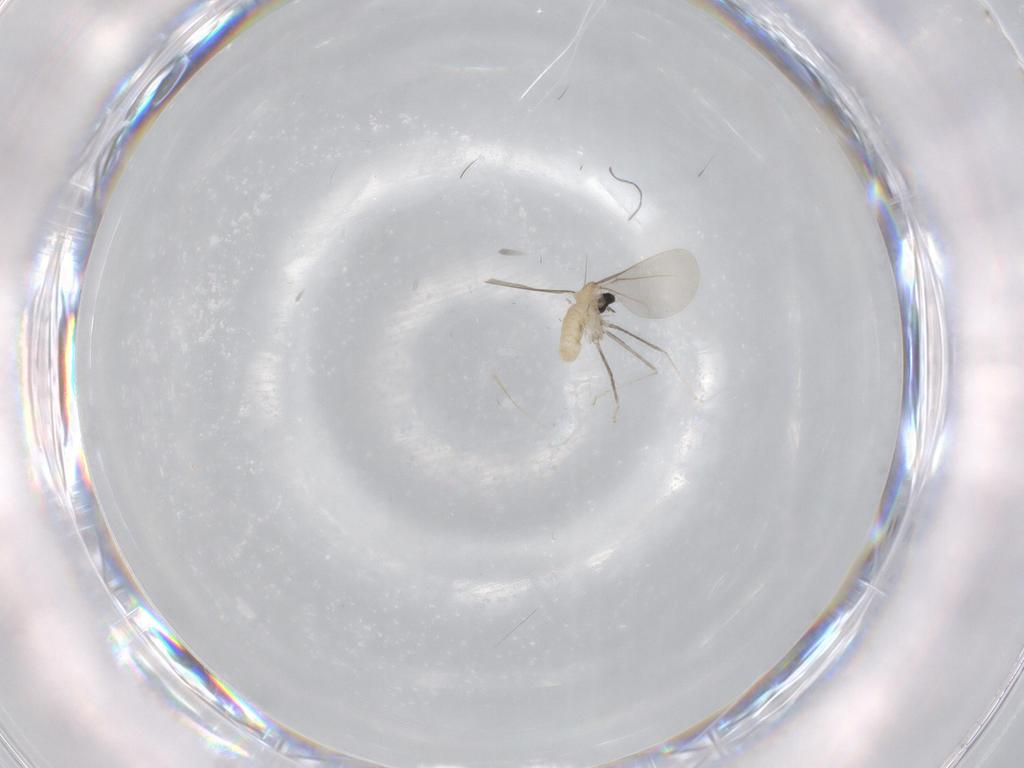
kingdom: Animalia
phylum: Arthropoda
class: Insecta
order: Diptera
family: Cecidomyiidae
